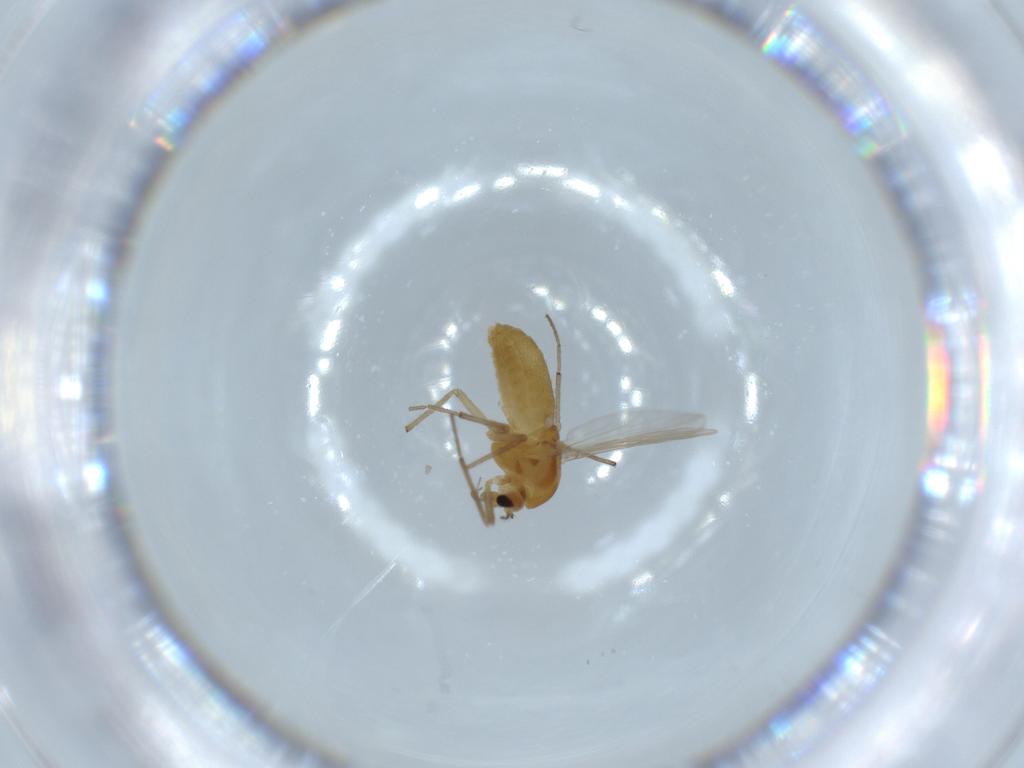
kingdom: Animalia
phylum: Arthropoda
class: Insecta
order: Diptera
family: Chironomidae
